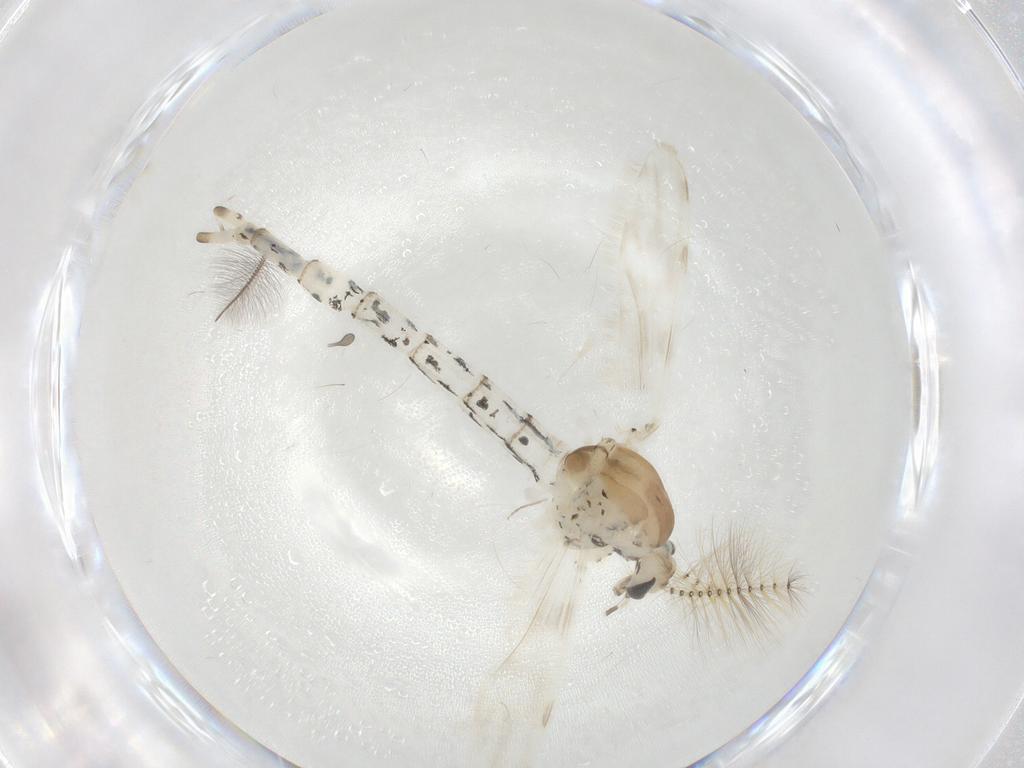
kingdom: Animalia
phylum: Arthropoda
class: Insecta
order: Diptera
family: Chaoboridae
